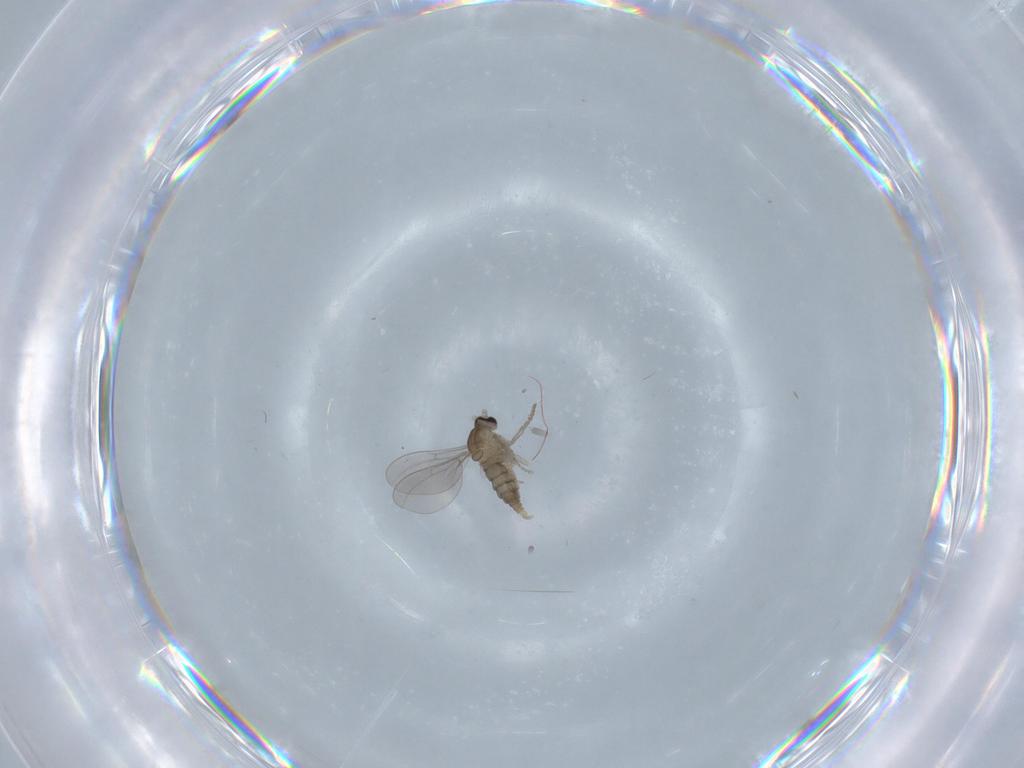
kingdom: Animalia
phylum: Arthropoda
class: Insecta
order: Diptera
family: Cecidomyiidae
